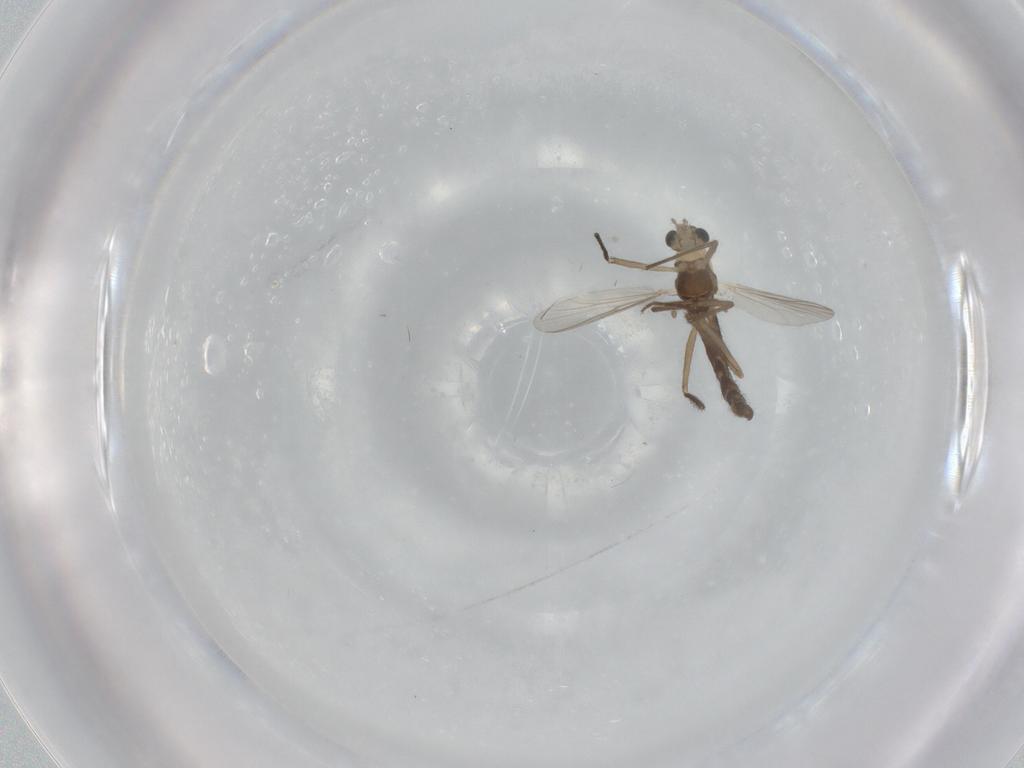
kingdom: Animalia
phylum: Arthropoda
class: Insecta
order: Diptera
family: Chironomidae
